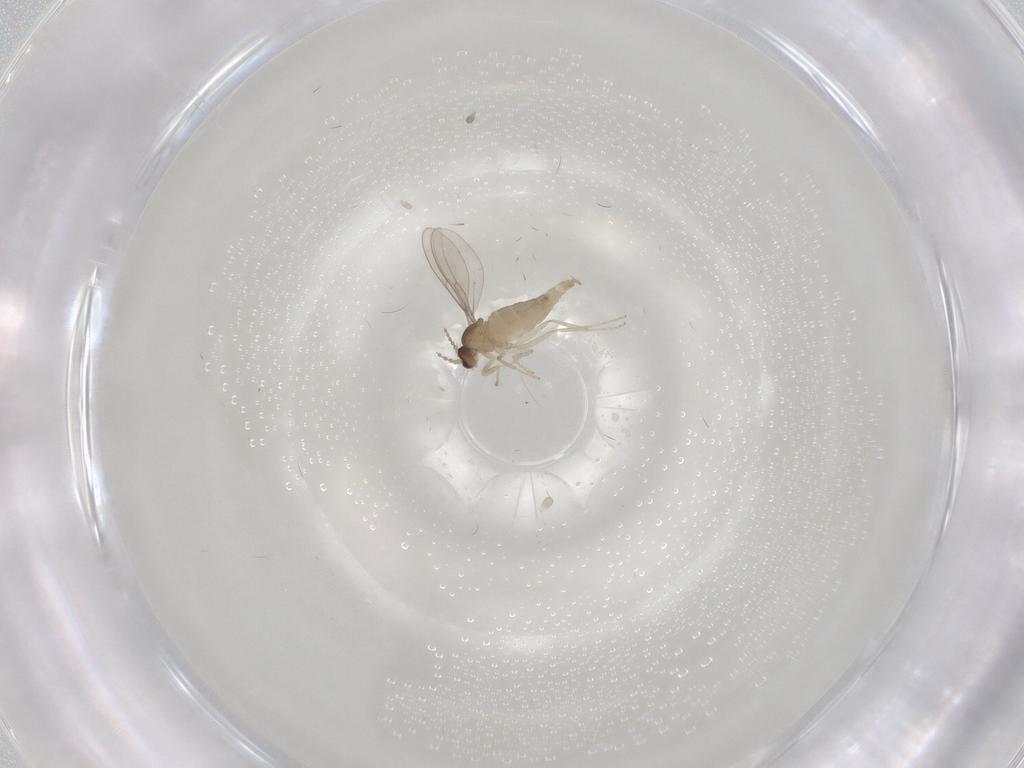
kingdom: Animalia
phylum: Arthropoda
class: Insecta
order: Diptera
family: Cecidomyiidae
